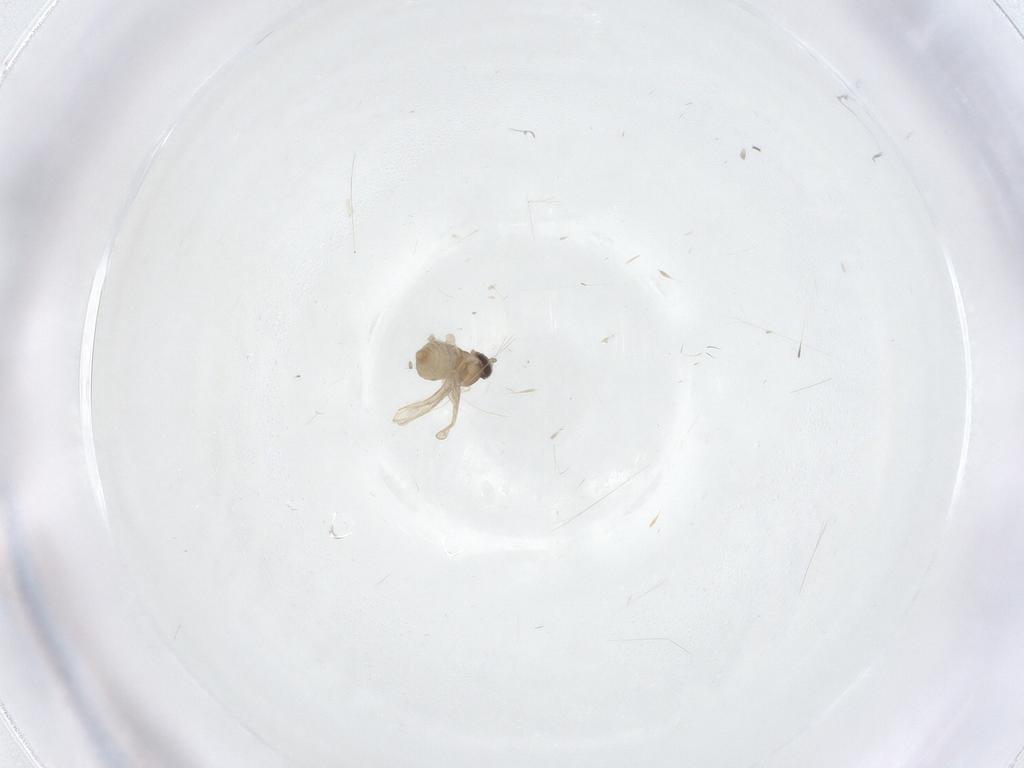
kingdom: Animalia
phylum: Arthropoda
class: Insecta
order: Diptera
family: Cecidomyiidae
